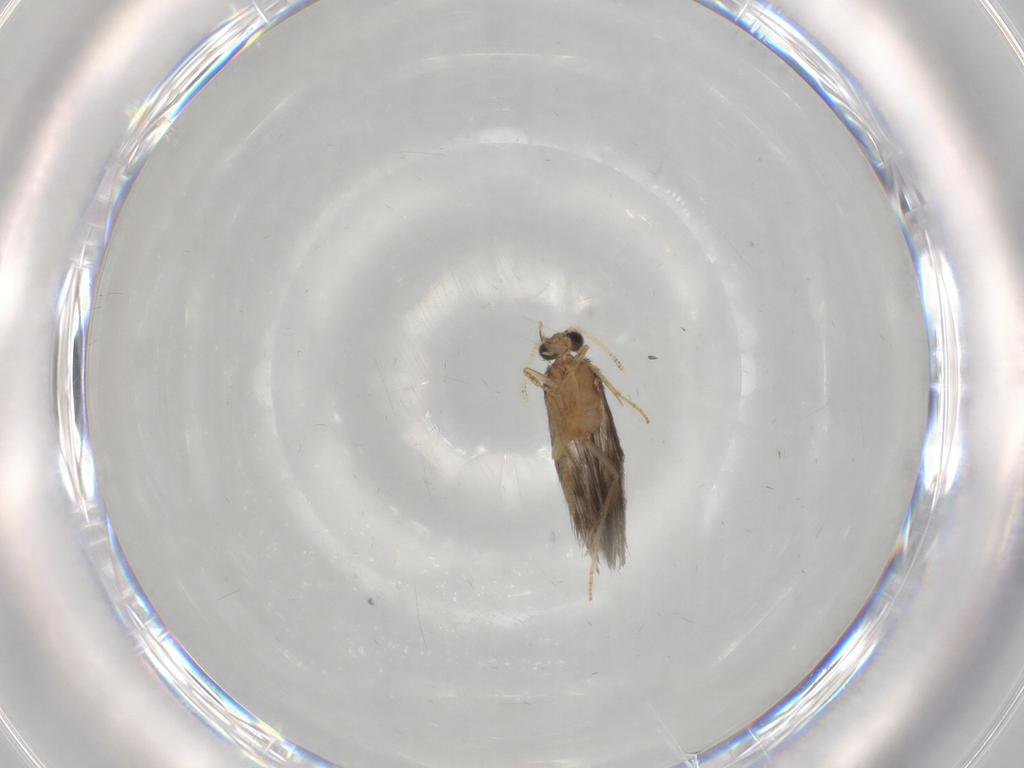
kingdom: Animalia
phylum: Arthropoda
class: Insecta
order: Trichoptera
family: Hydroptilidae
